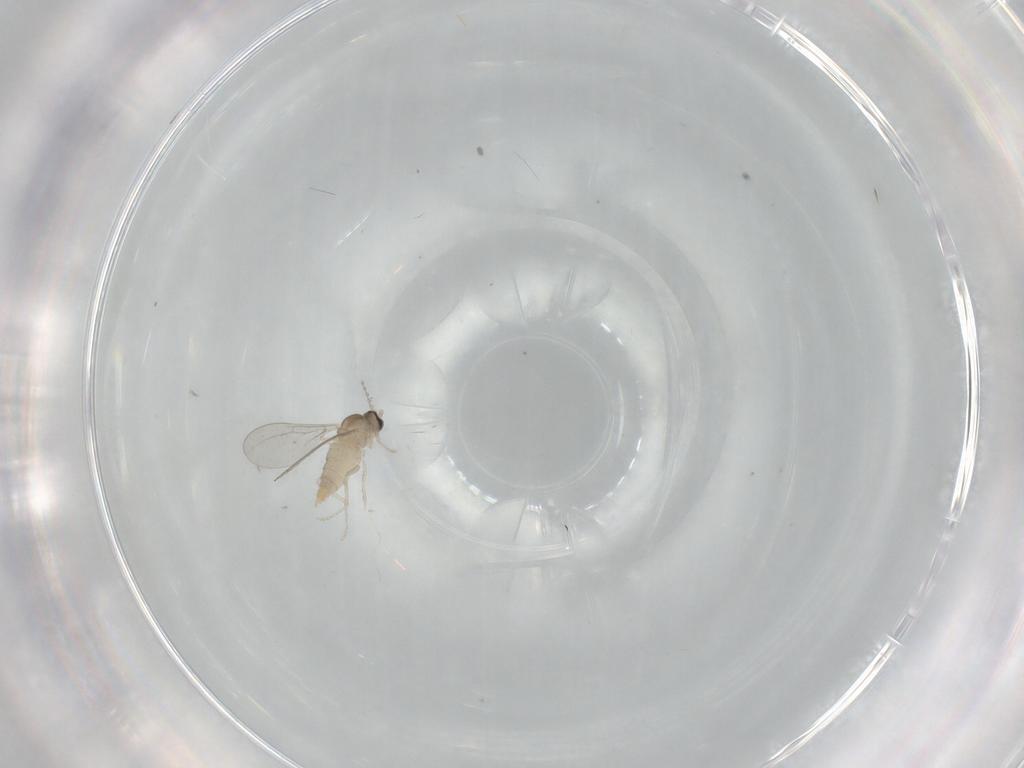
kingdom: Animalia
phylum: Arthropoda
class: Insecta
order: Diptera
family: Cecidomyiidae
